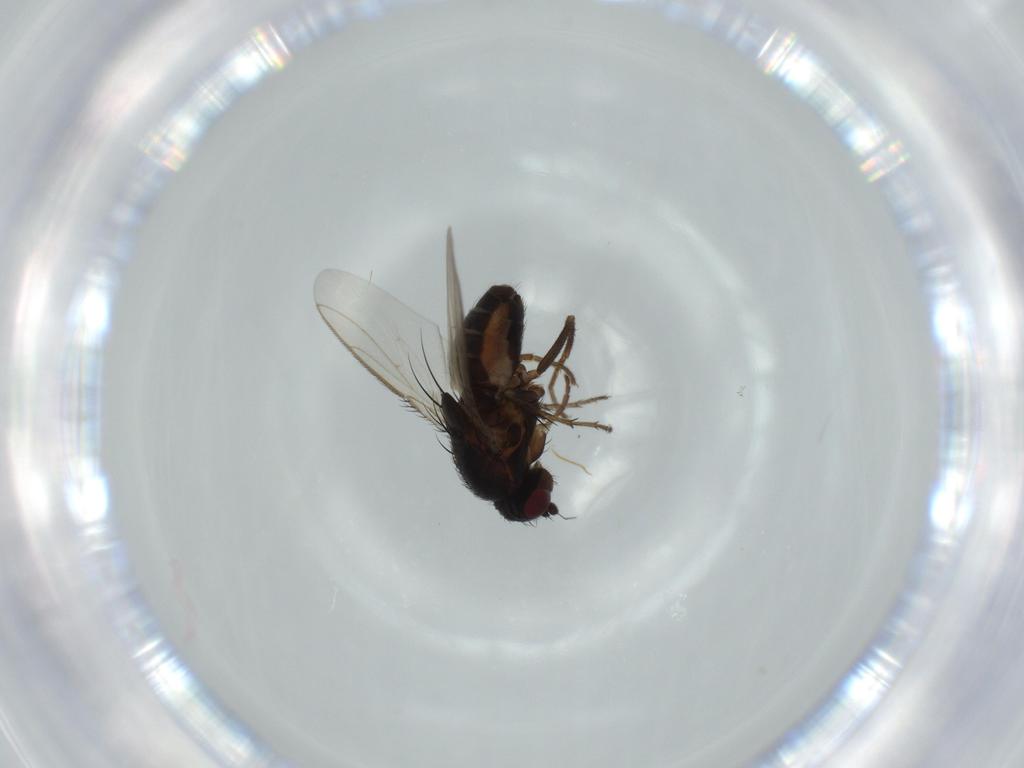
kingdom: Animalia
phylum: Arthropoda
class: Insecta
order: Diptera
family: Sphaeroceridae
